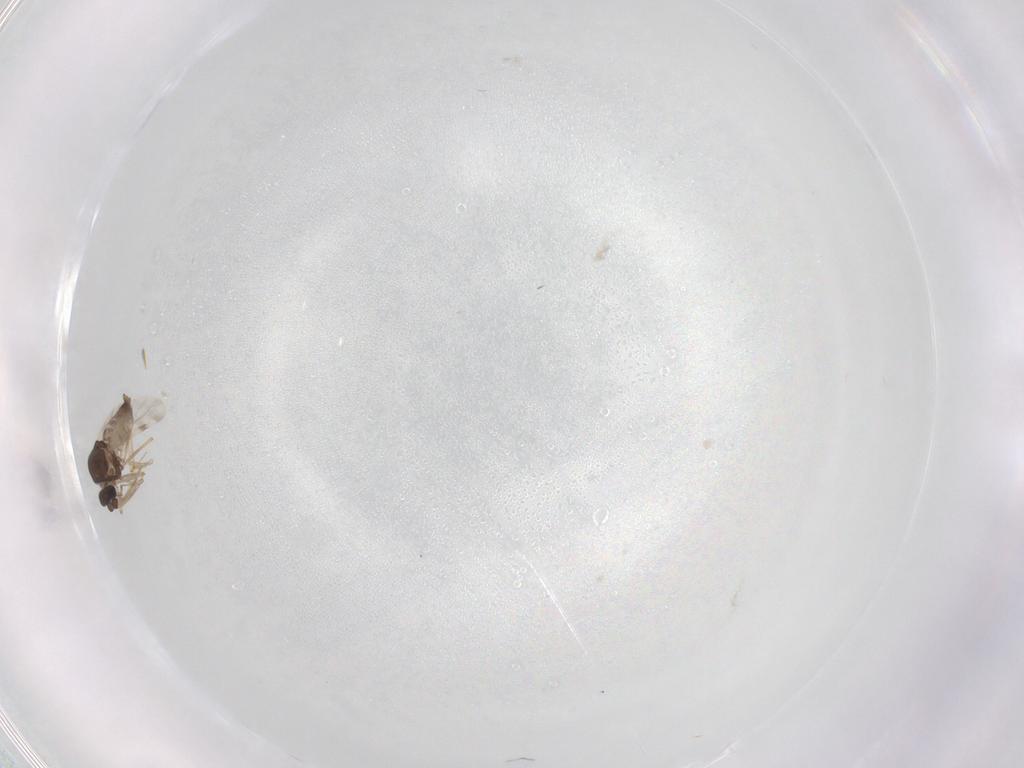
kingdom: Animalia
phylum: Arthropoda
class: Insecta
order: Diptera
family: Ceratopogonidae
